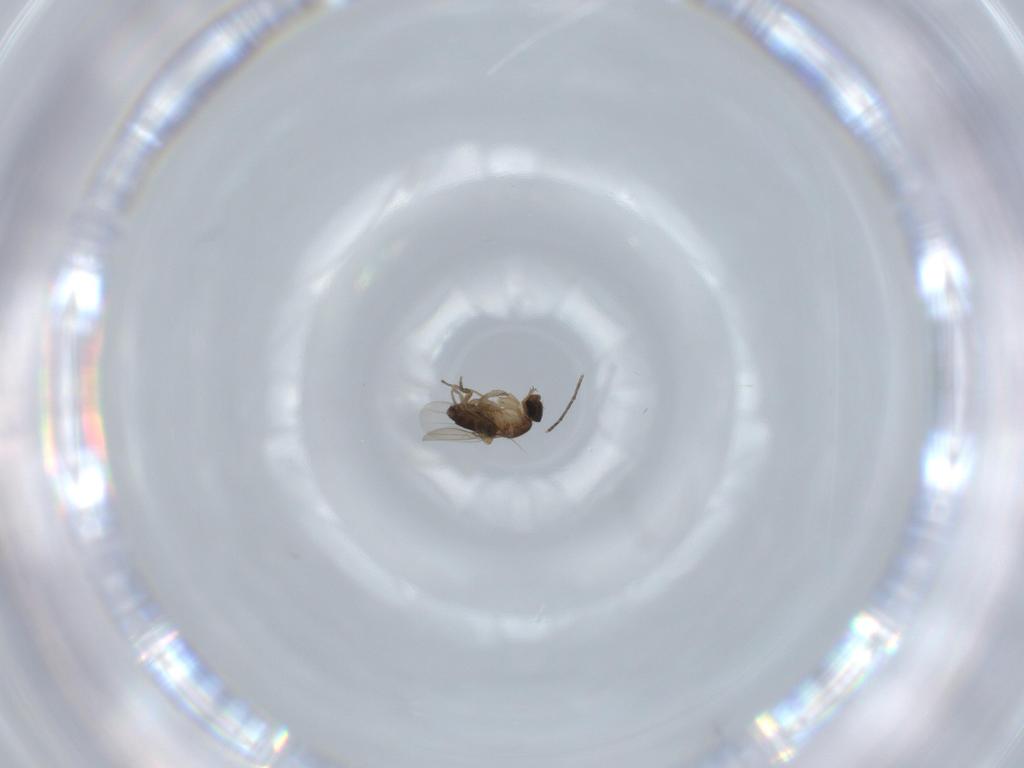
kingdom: Animalia
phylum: Arthropoda
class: Insecta
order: Diptera
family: Phoridae
